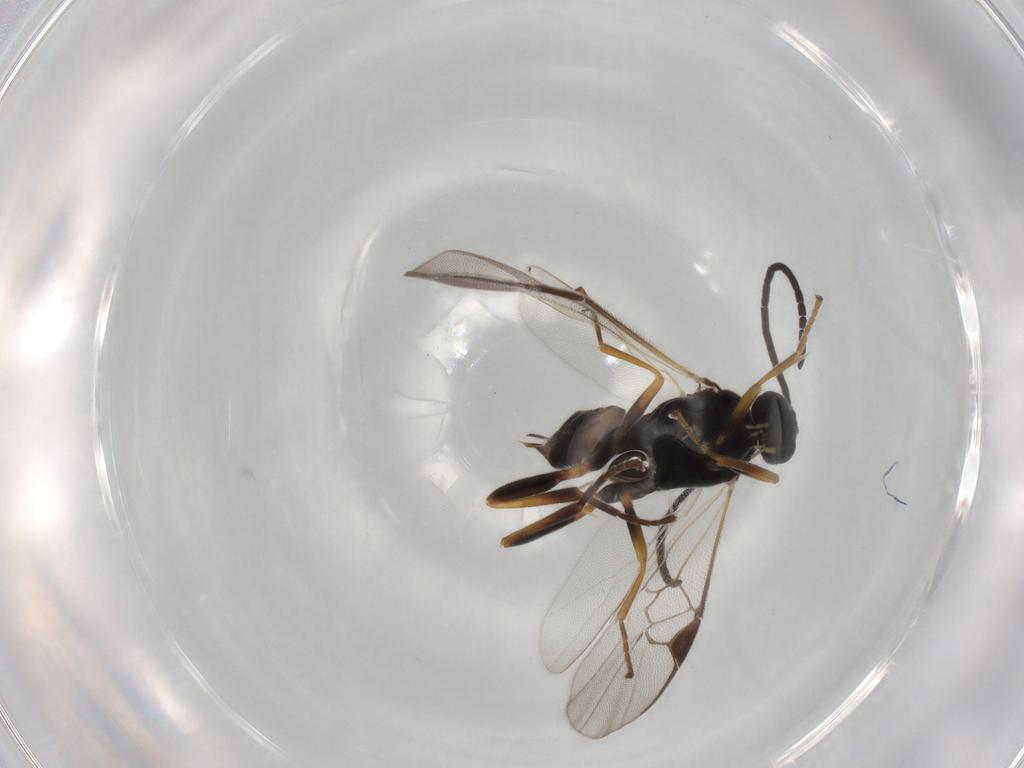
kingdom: Animalia
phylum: Arthropoda
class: Insecta
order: Hymenoptera
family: Braconidae
